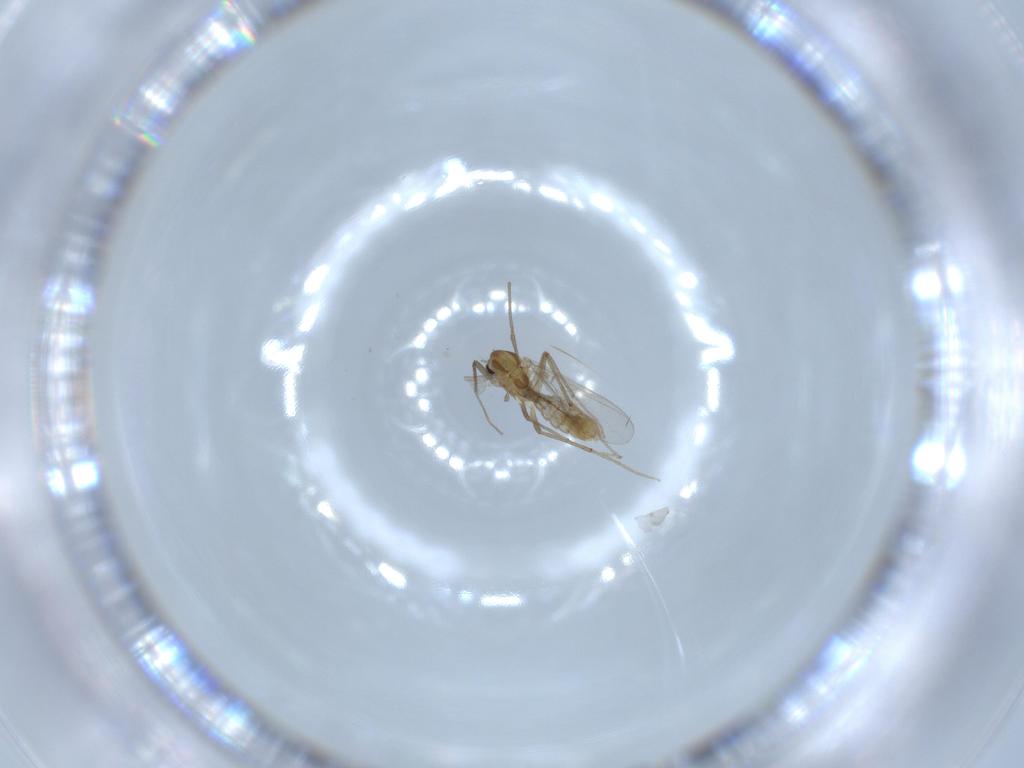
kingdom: Animalia
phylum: Arthropoda
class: Insecta
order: Diptera
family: Chironomidae
